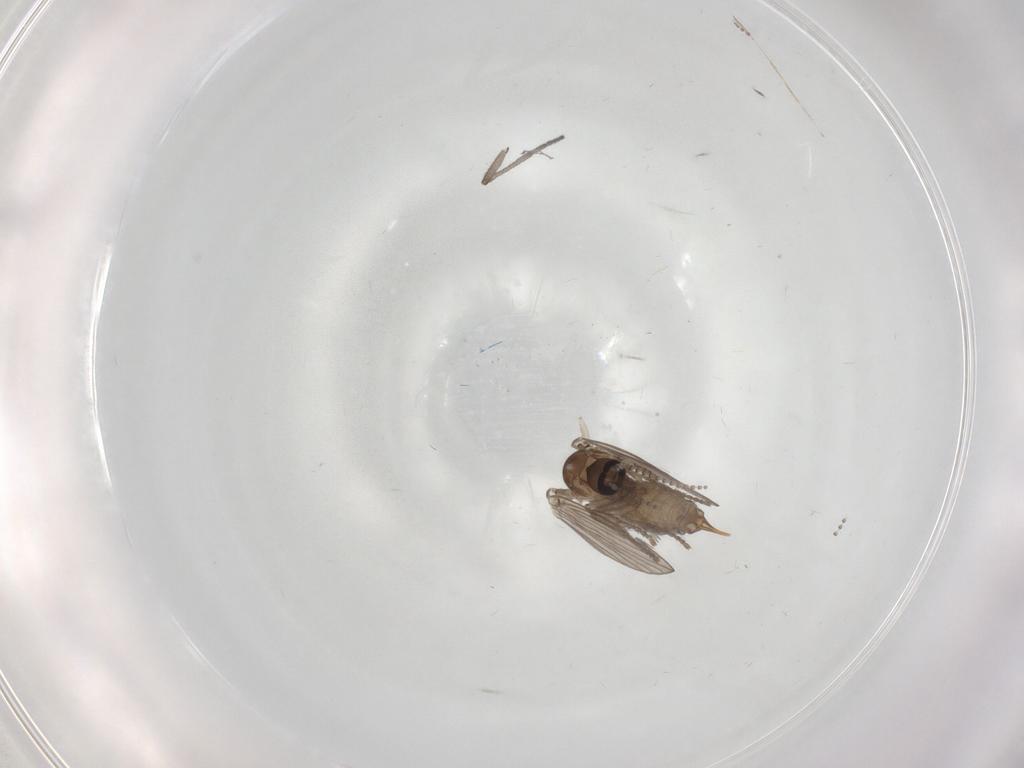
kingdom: Animalia
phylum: Arthropoda
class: Insecta
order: Diptera
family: Sciaridae
